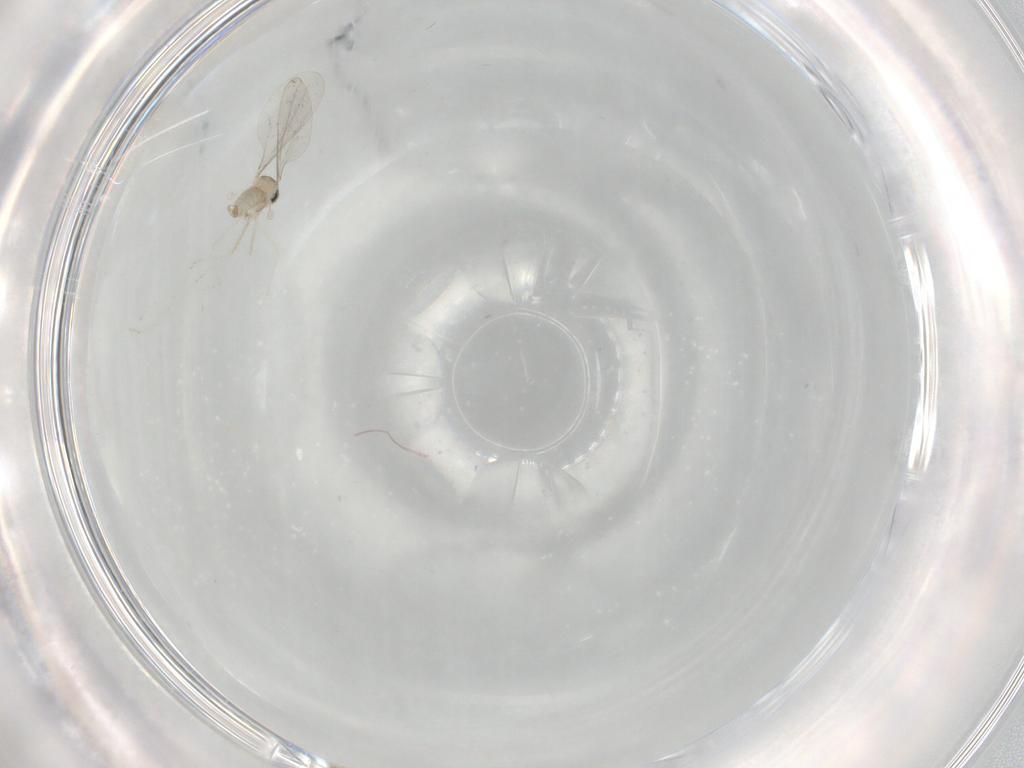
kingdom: Animalia
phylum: Arthropoda
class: Insecta
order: Diptera
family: Cecidomyiidae
